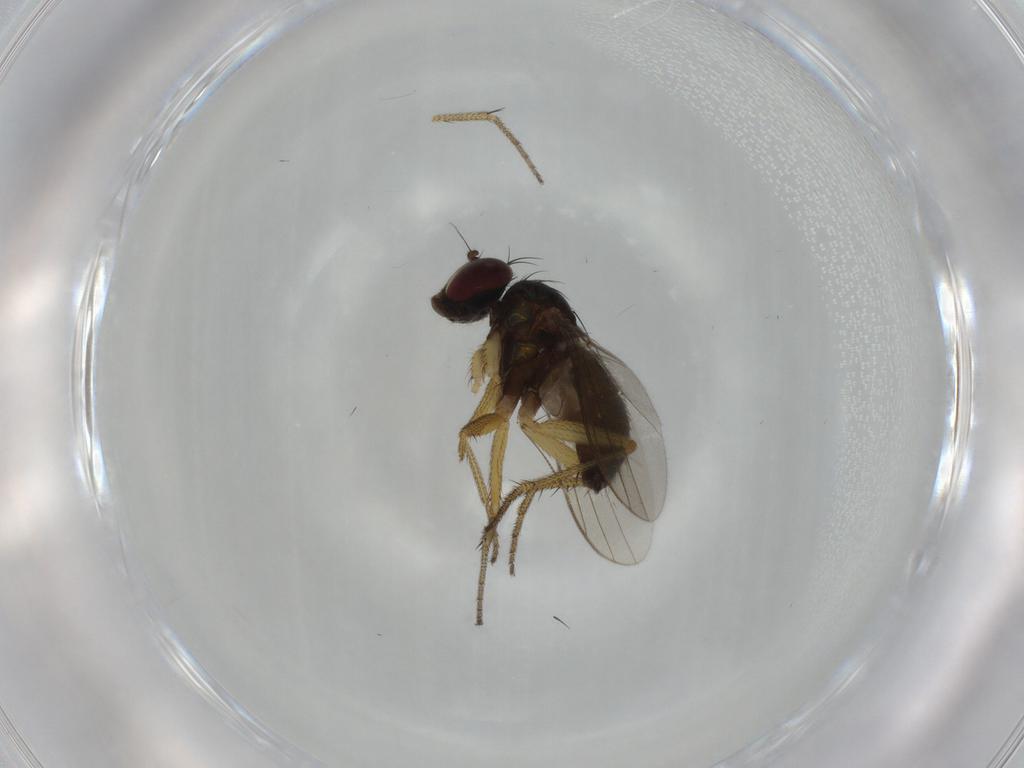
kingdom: Animalia
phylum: Arthropoda
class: Insecta
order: Diptera
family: Dolichopodidae
